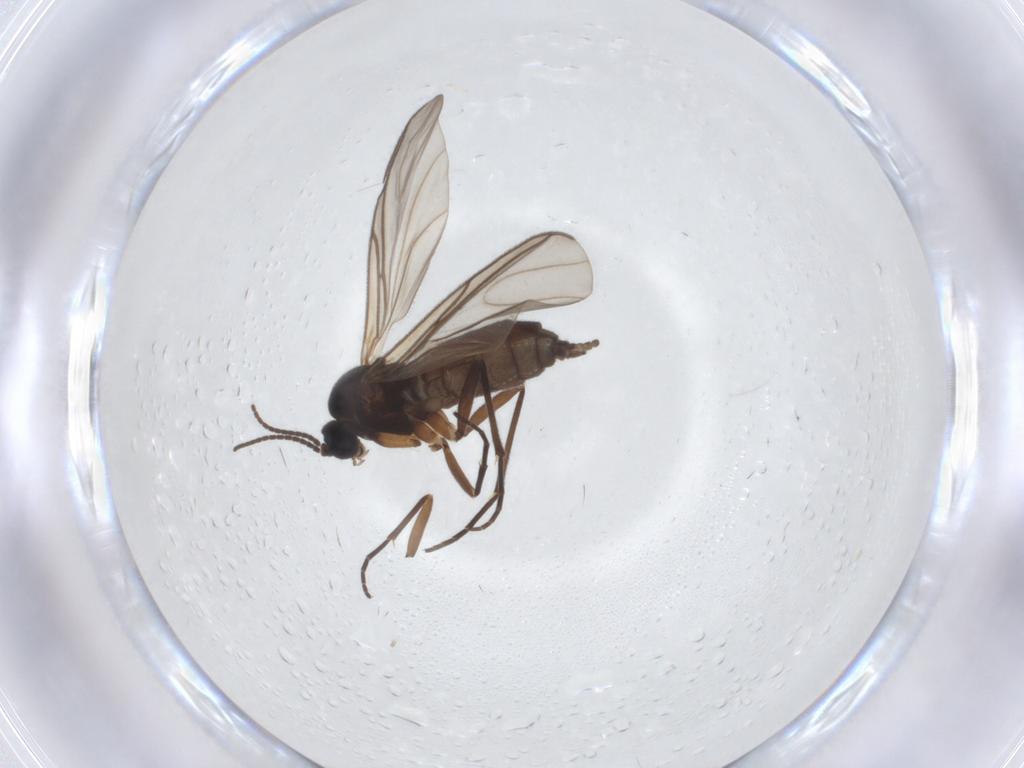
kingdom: Animalia
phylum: Arthropoda
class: Insecta
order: Diptera
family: Sciaridae
